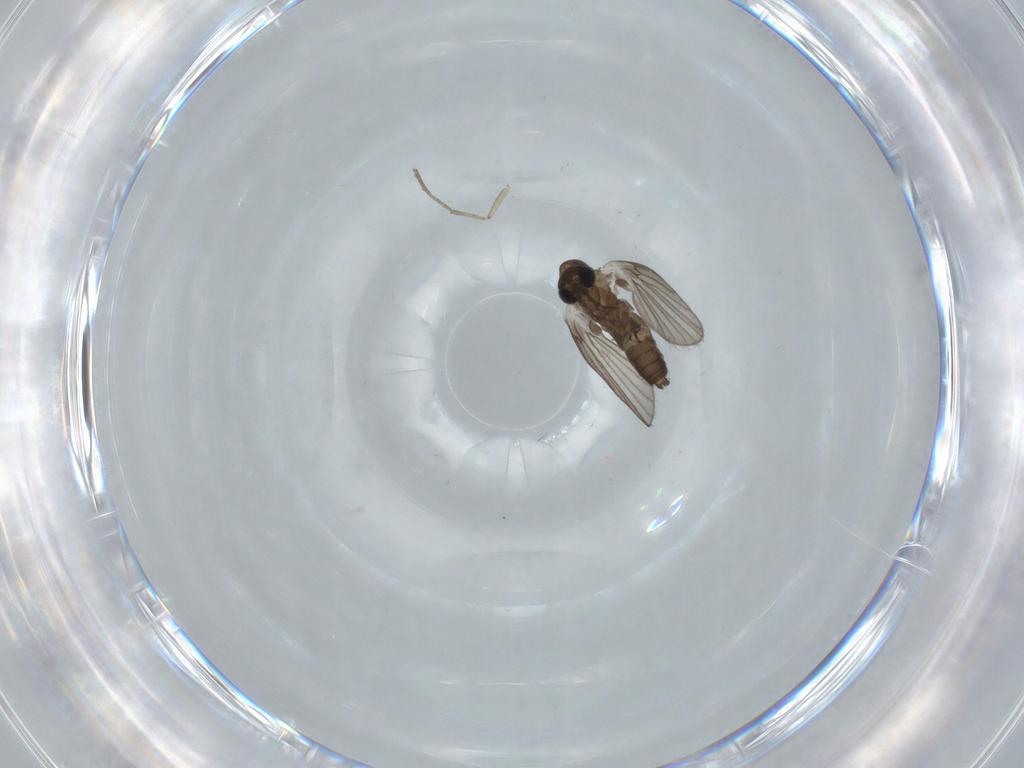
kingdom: Animalia
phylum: Arthropoda
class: Insecta
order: Diptera
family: Psychodidae
